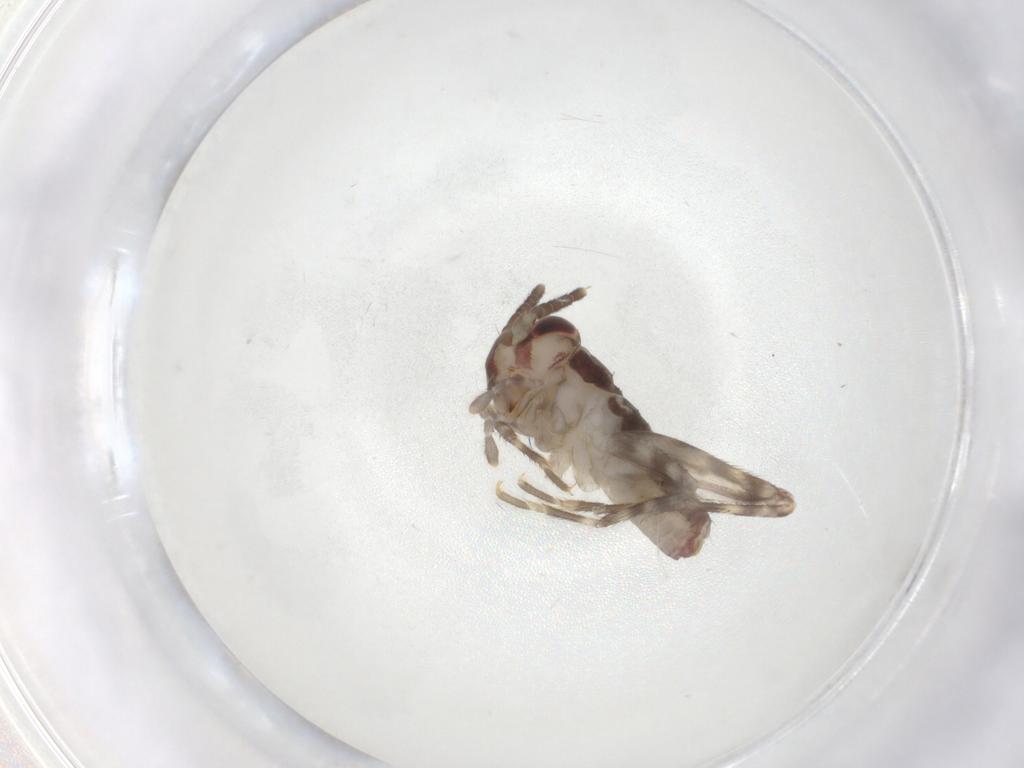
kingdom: Animalia
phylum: Arthropoda
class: Insecta
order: Orthoptera
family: Gryllidae
